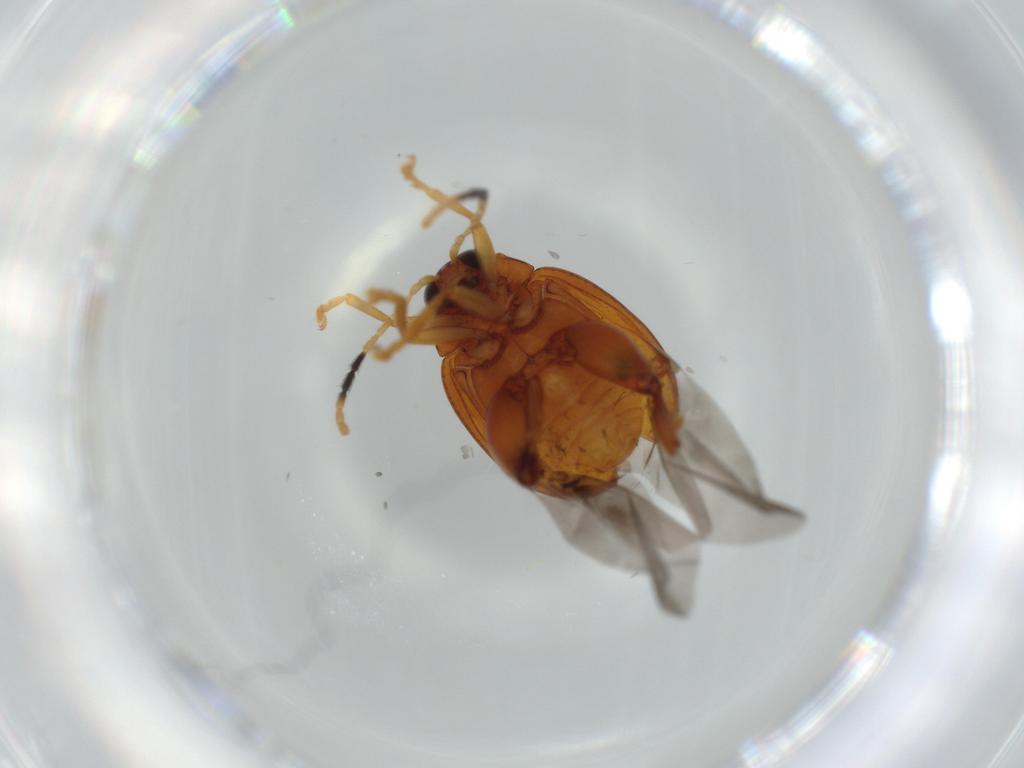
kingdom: Animalia
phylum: Arthropoda
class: Insecta
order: Coleoptera
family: Chrysomelidae
